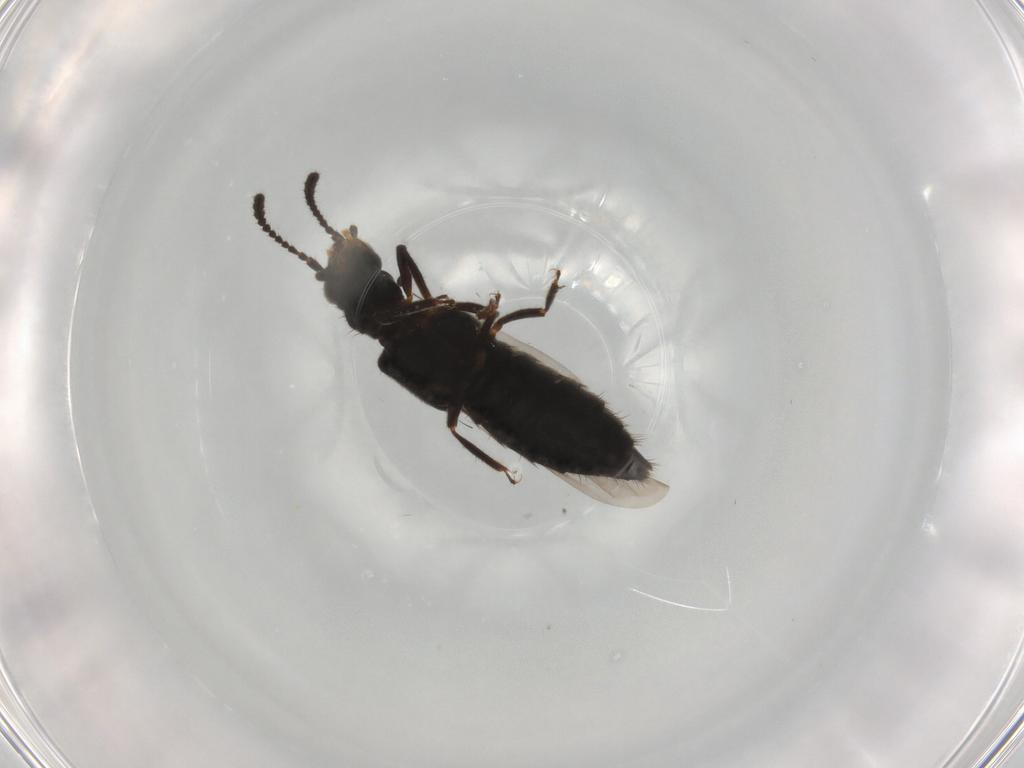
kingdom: Animalia
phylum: Arthropoda
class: Insecta
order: Coleoptera
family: Staphylinidae
